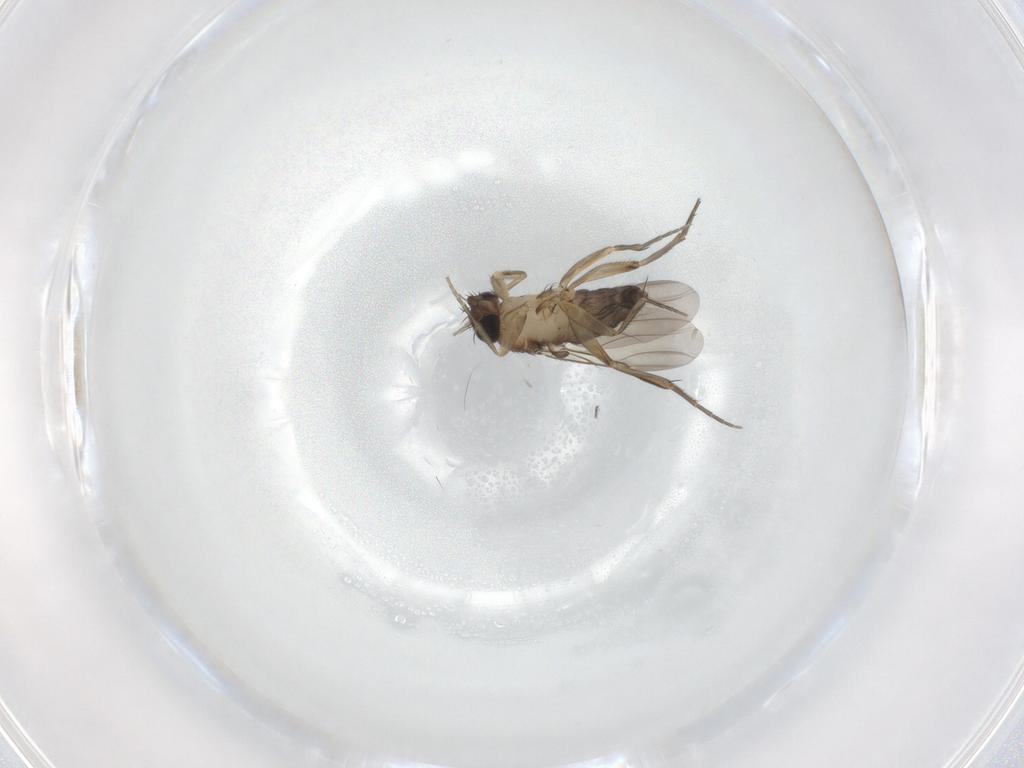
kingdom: Animalia
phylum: Arthropoda
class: Insecta
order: Diptera
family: Phoridae
